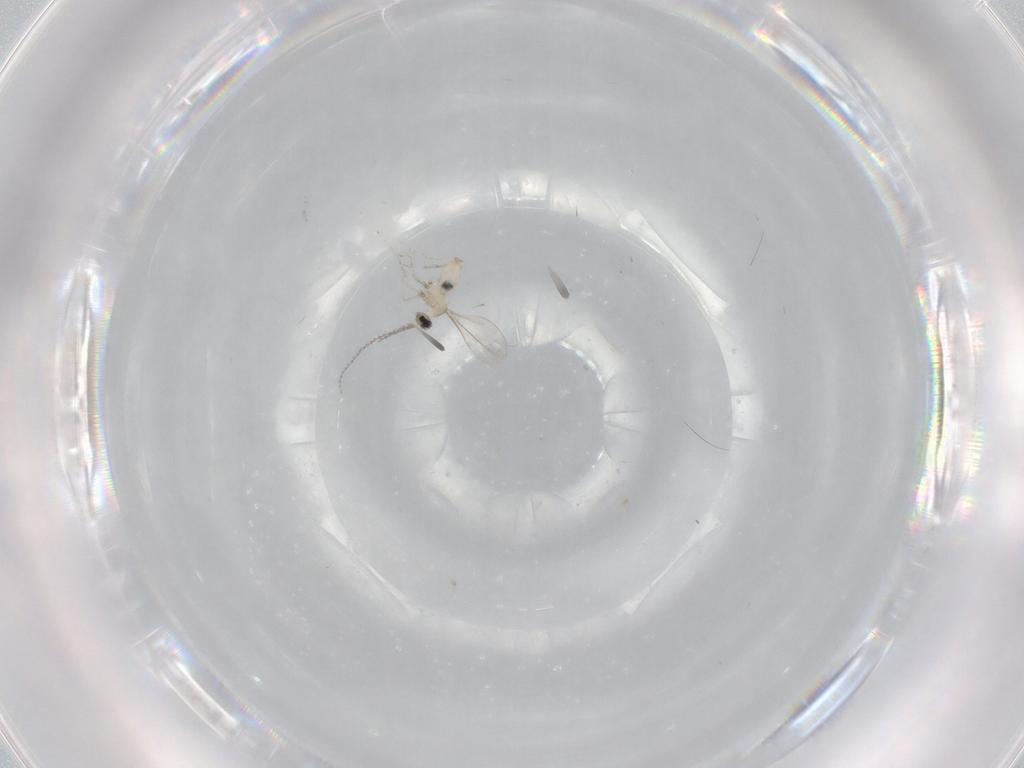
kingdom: Animalia
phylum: Arthropoda
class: Insecta
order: Diptera
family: Cecidomyiidae
